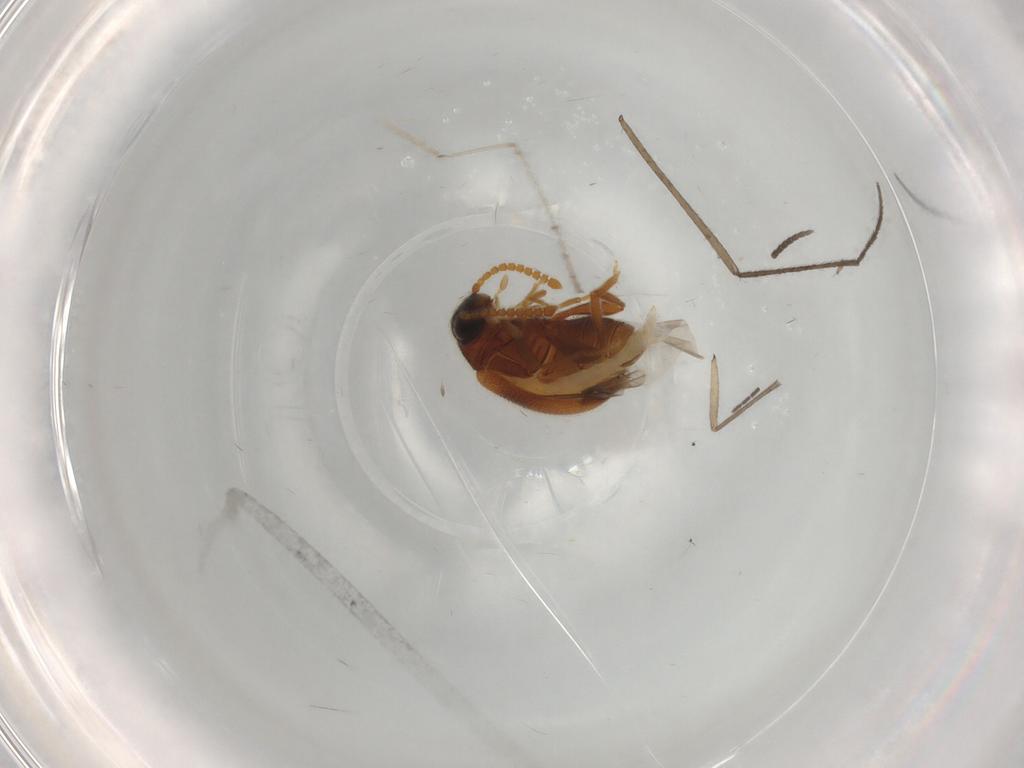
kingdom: Animalia
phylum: Arthropoda
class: Insecta
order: Coleoptera
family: Aderidae
